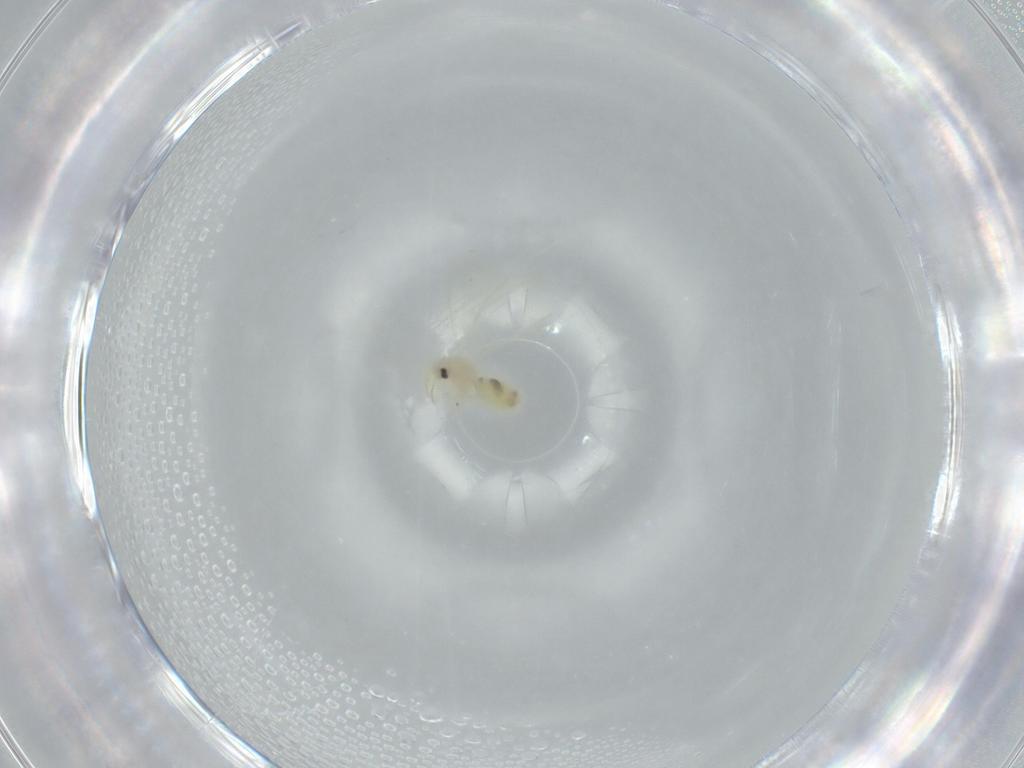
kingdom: Animalia
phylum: Arthropoda
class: Insecta
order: Hemiptera
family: Aleyrodidae
